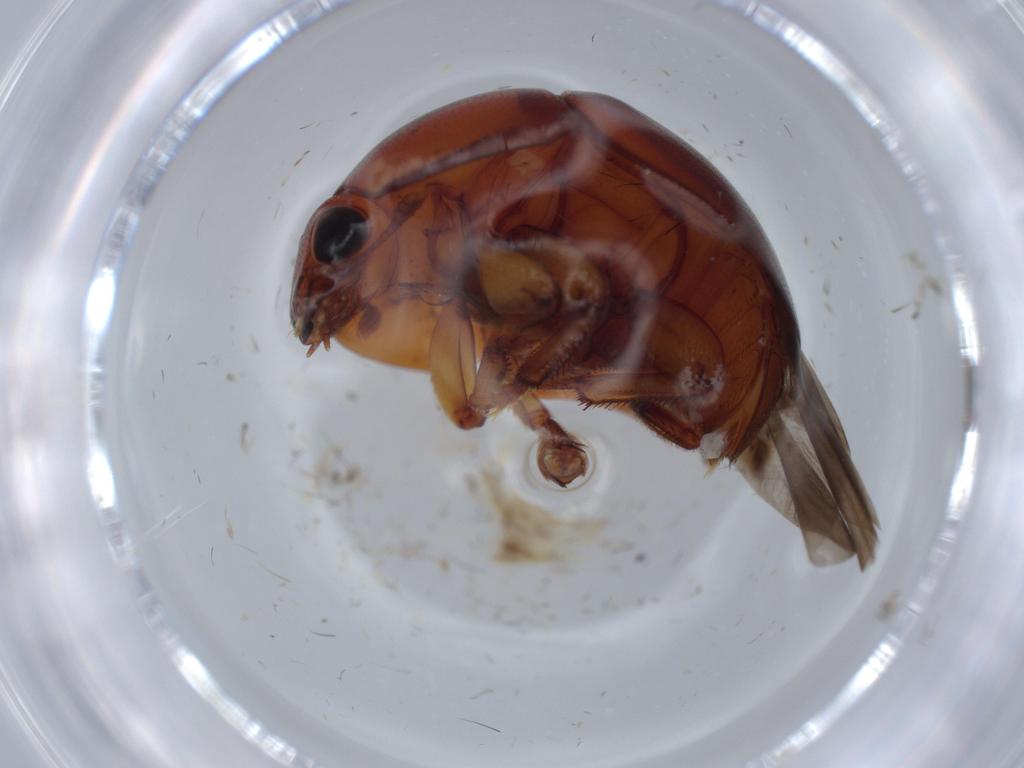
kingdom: Animalia
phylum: Arthropoda
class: Insecta
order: Coleoptera
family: Nitidulidae
